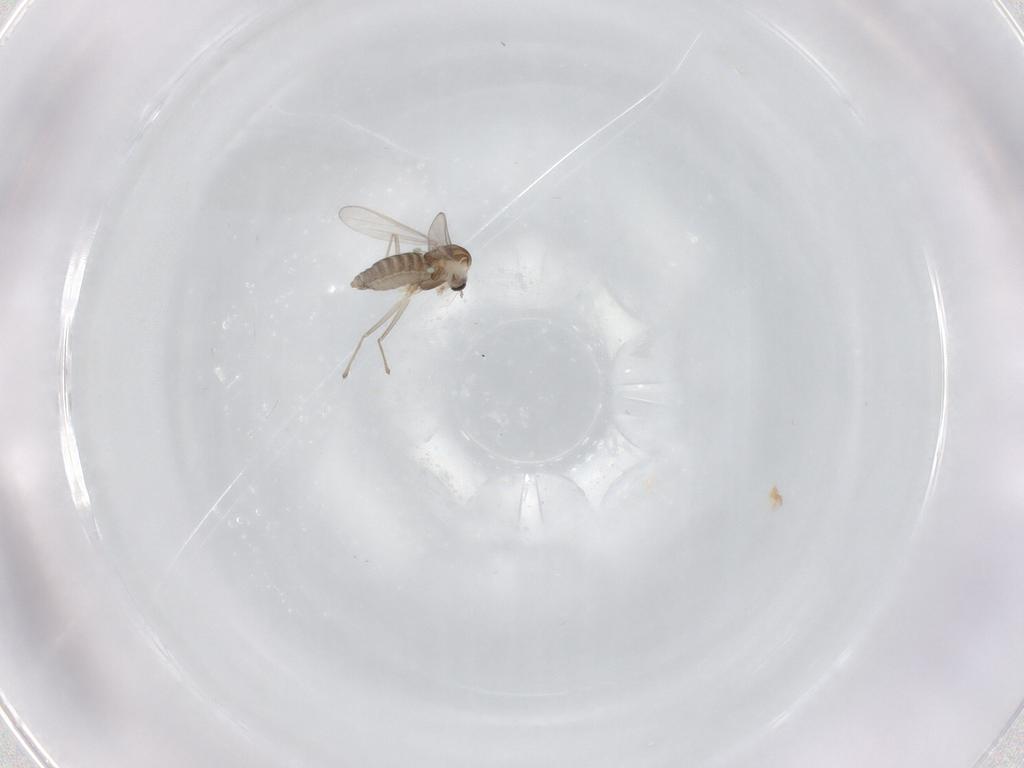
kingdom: Animalia
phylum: Arthropoda
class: Insecta
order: Diptera
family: Chironomidae
